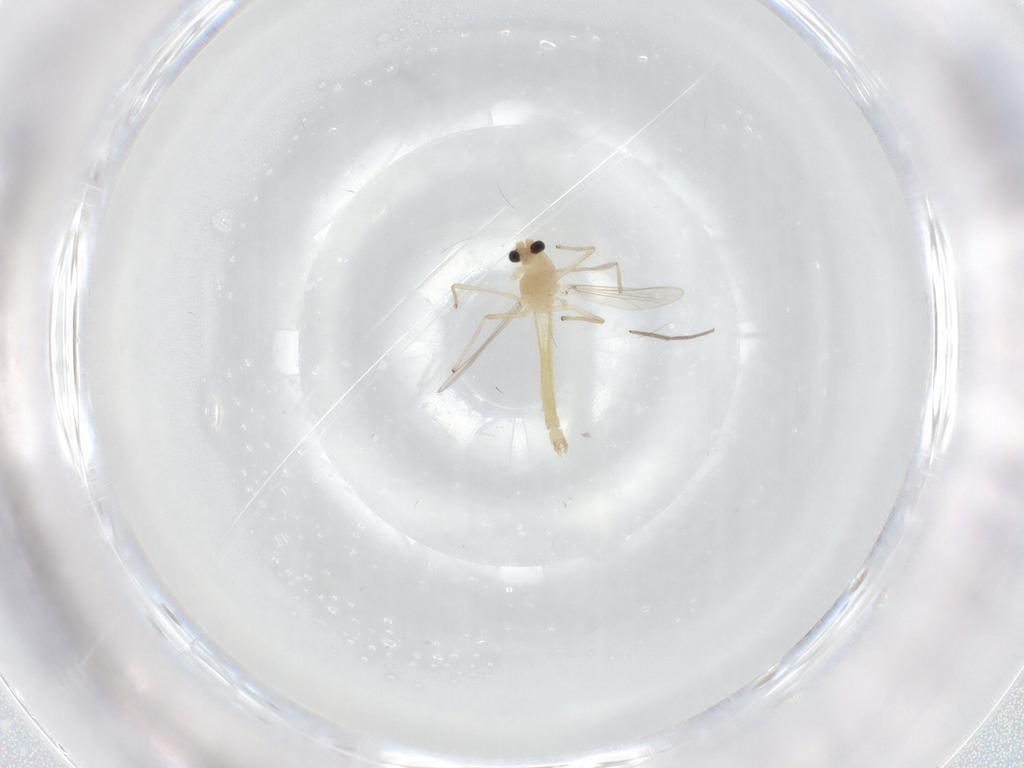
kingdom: Animalia
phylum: Arthropoda
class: Insecta
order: Diptera
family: Chironomidae
